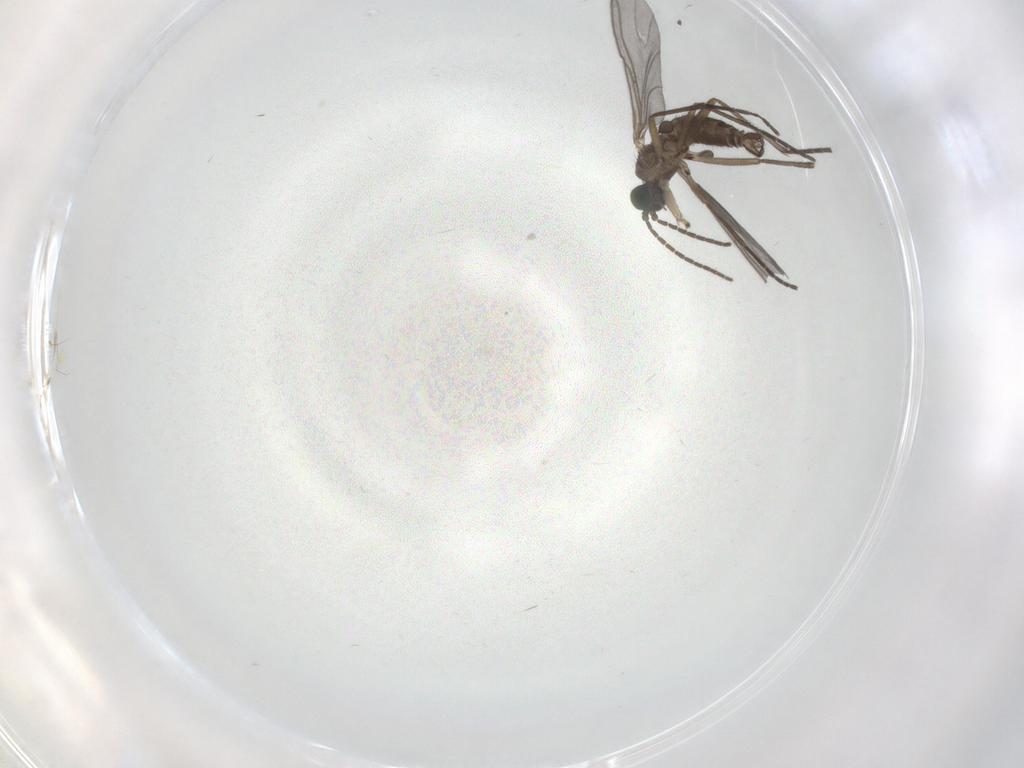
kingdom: Animalia
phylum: Arthropoda
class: Insecta
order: Diptera
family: Sciaridae
